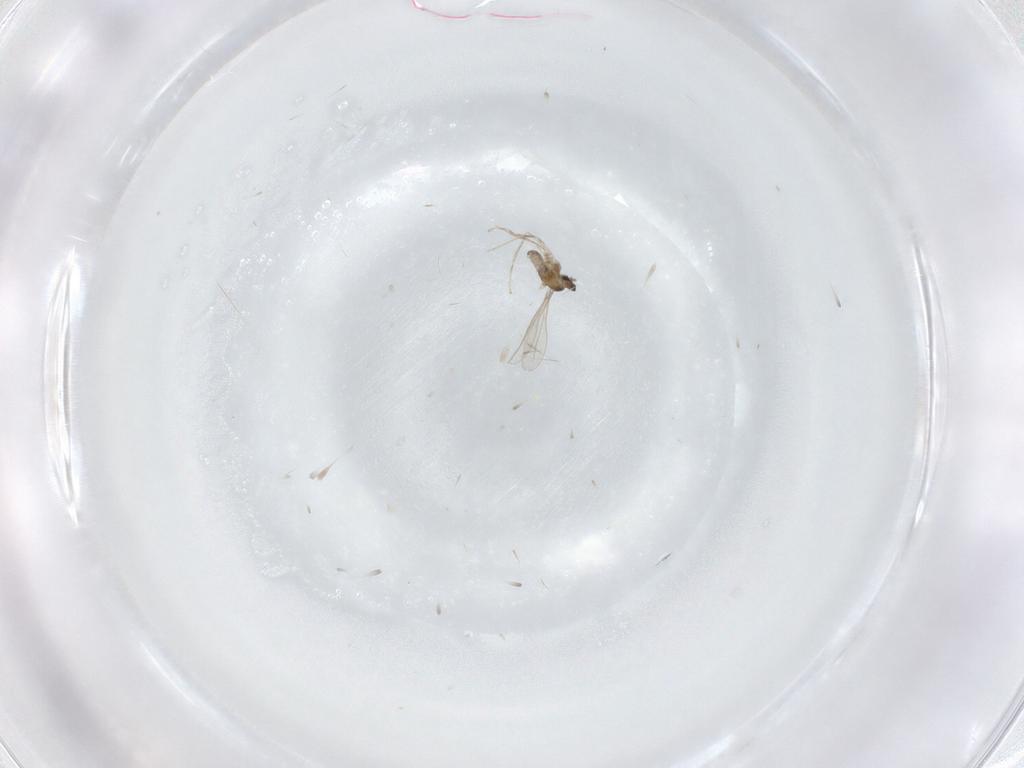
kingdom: Animalia
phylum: Arthropoda
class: Insecta
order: Diptera
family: Cecidomyiidae
